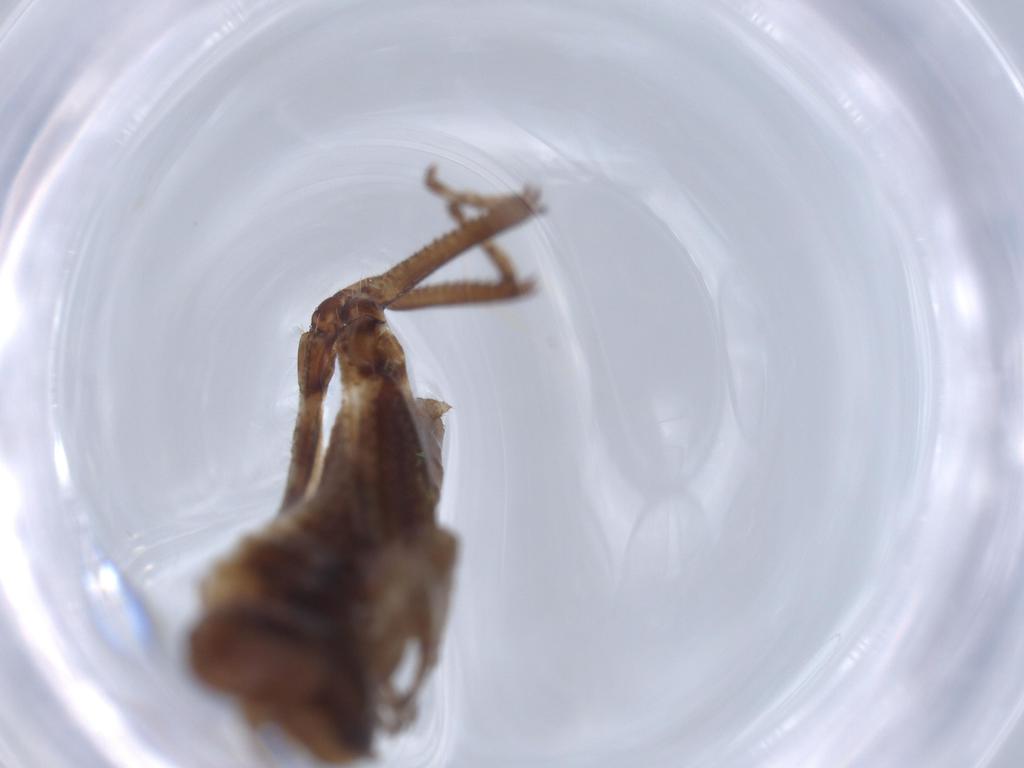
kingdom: Animalia
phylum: Arthropoda
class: Insecta
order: Orthoptera
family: Acrididae
